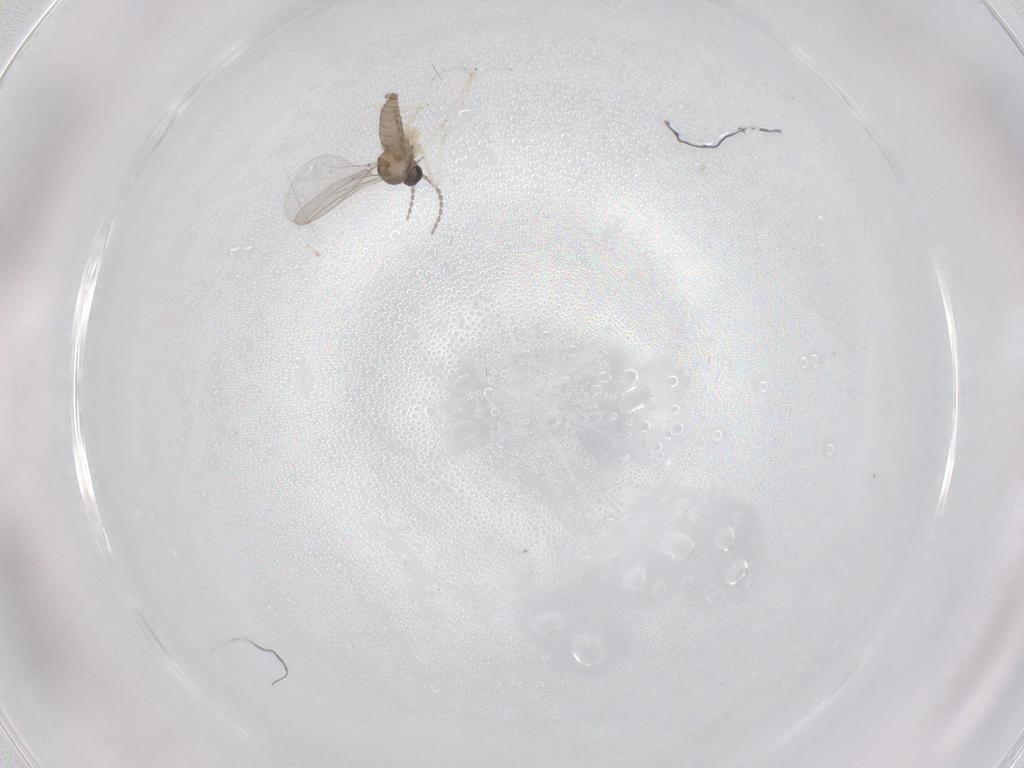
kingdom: Animalia
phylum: Arthropoda
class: Insecta
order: Diptera
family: Cecidomyiidae
